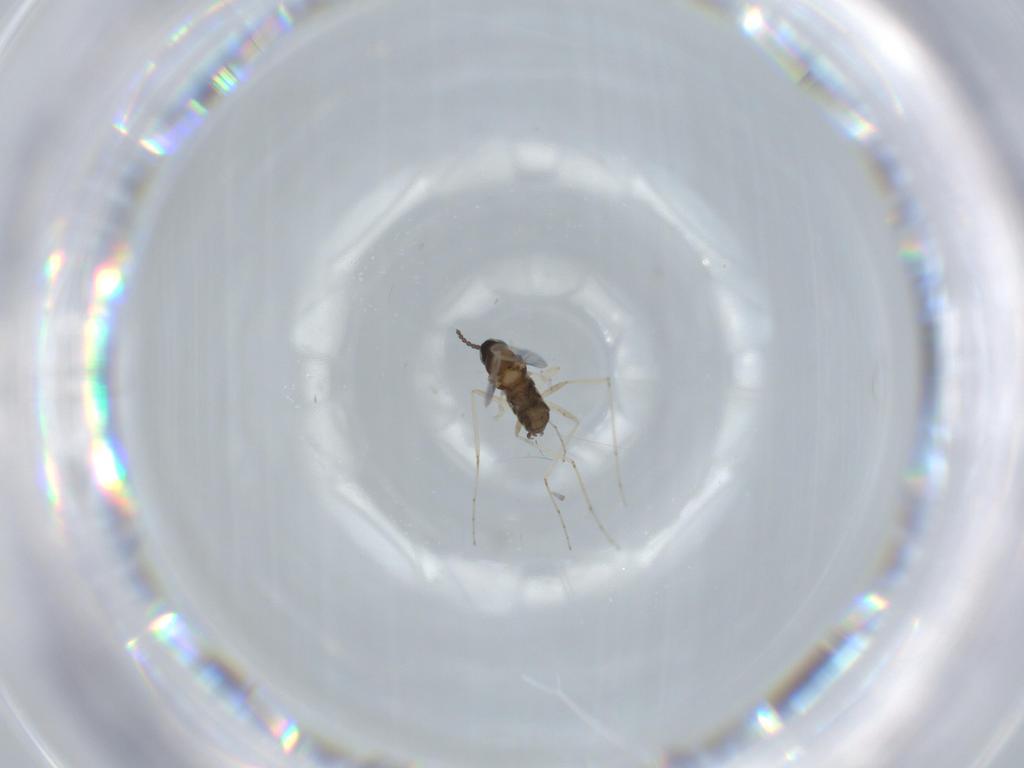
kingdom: Animalia
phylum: Arthropoda
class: Insecta
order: Diptera
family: Cecidomyiidae
